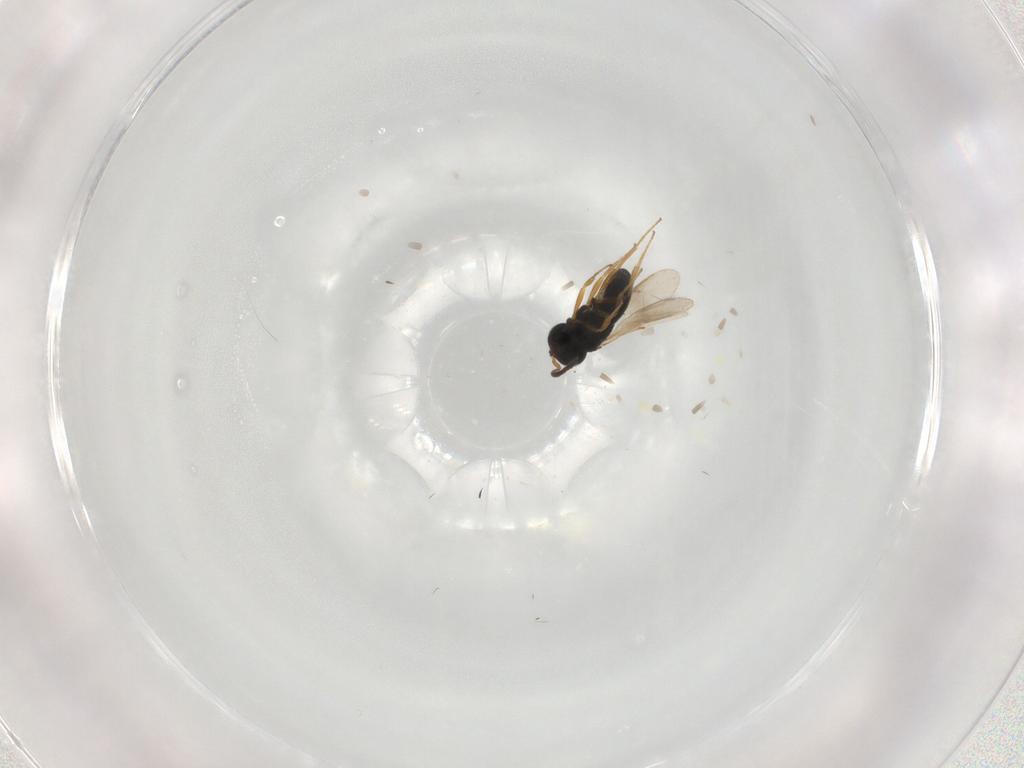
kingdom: Animalia
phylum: Arthropoda
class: Insecta
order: Hymenoptera
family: Scelionidae
